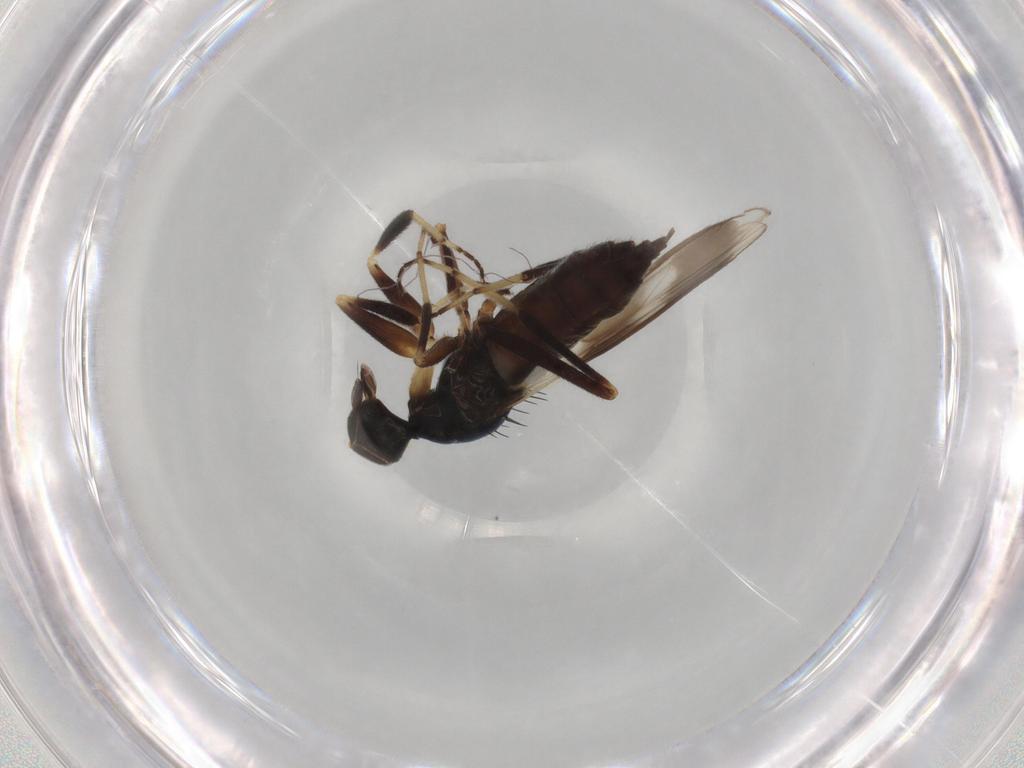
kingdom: Animalia
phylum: Arthropoda
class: Insecta
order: Diptera
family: Hybotidae
